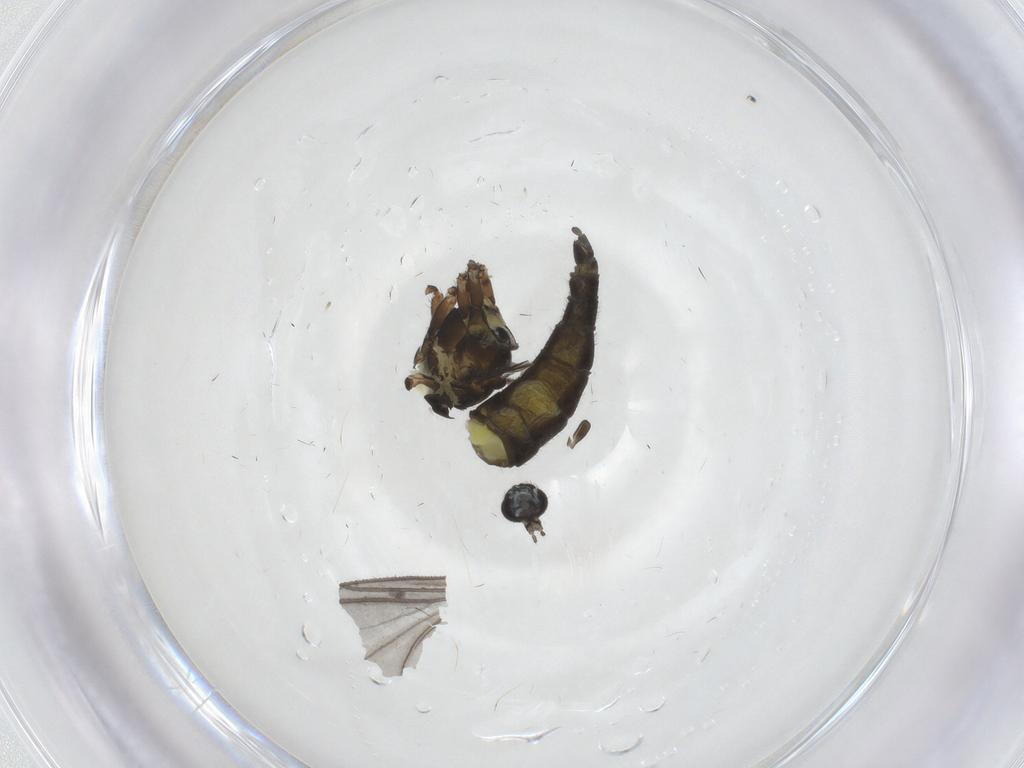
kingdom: Animalia
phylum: Arthropoda
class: Insecta
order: Diptera
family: Sciaridae
